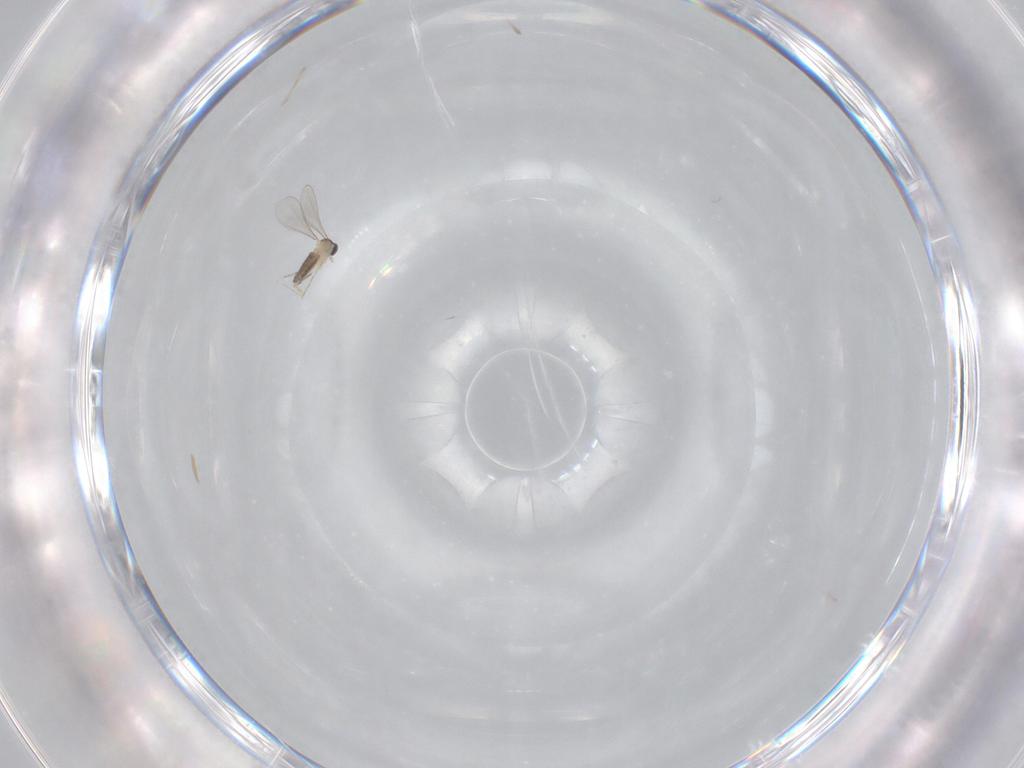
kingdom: Animalia
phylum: Arthropoda
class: Insecta
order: Diptera
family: Cecidomyiidae
